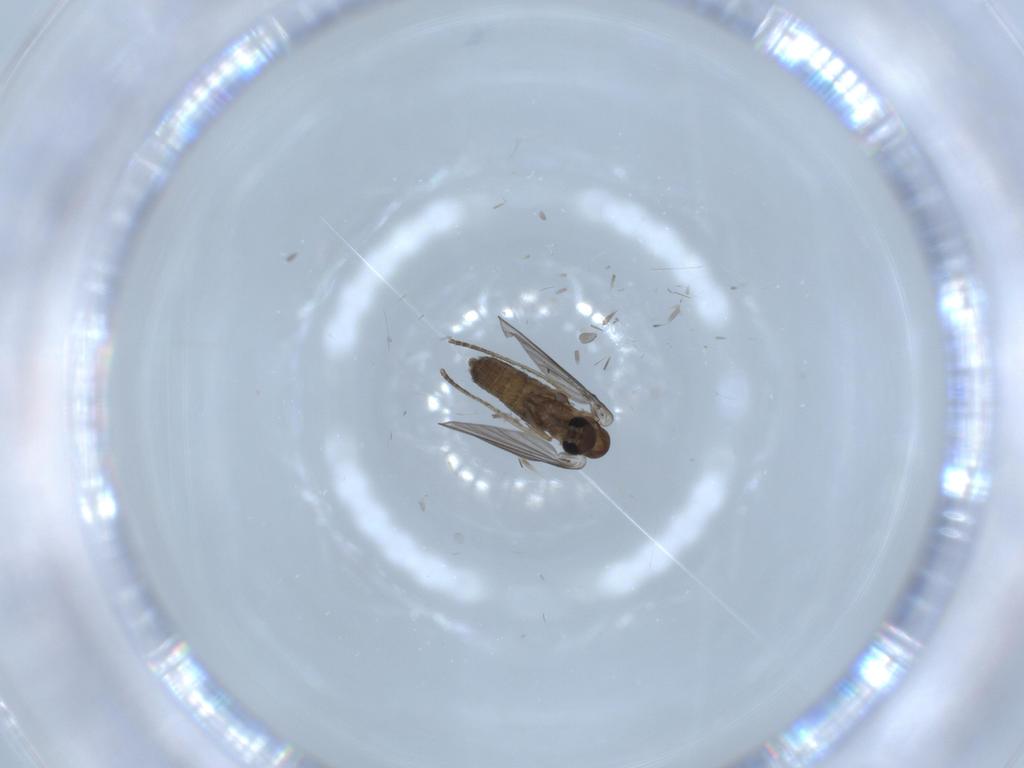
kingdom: Animalia
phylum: Arthropoda
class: Insecta
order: Diptera
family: Psychodidae
